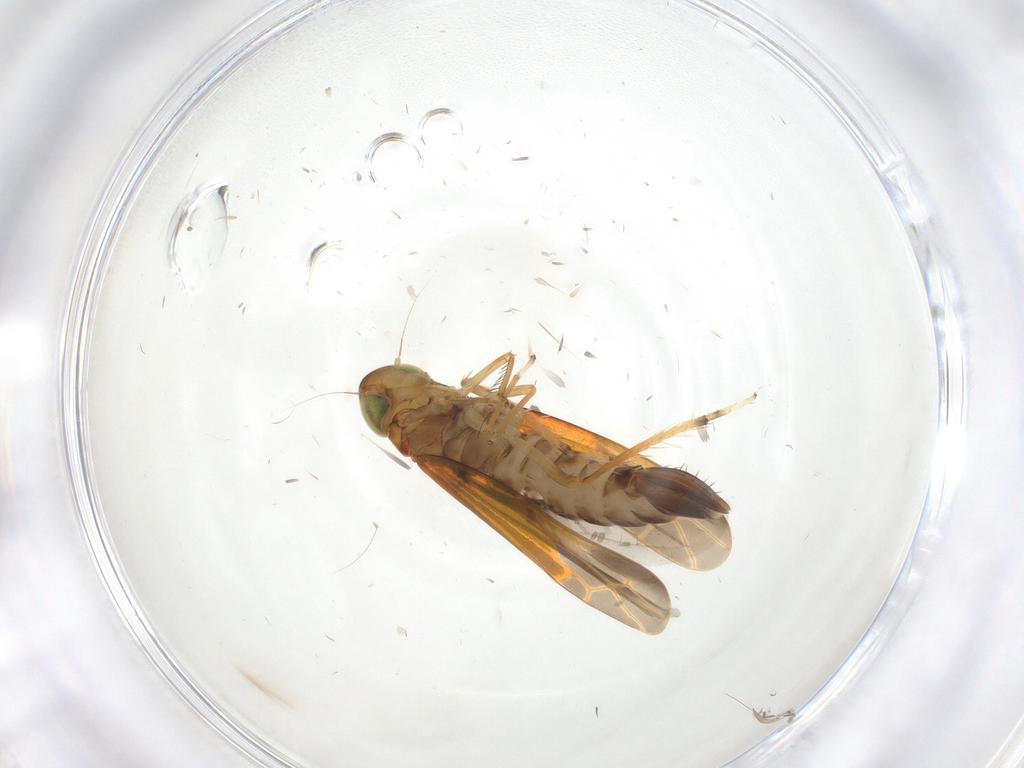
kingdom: Animalia
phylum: Arthropoda
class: Insecta
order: Hemiptera
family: Cicadellidae
